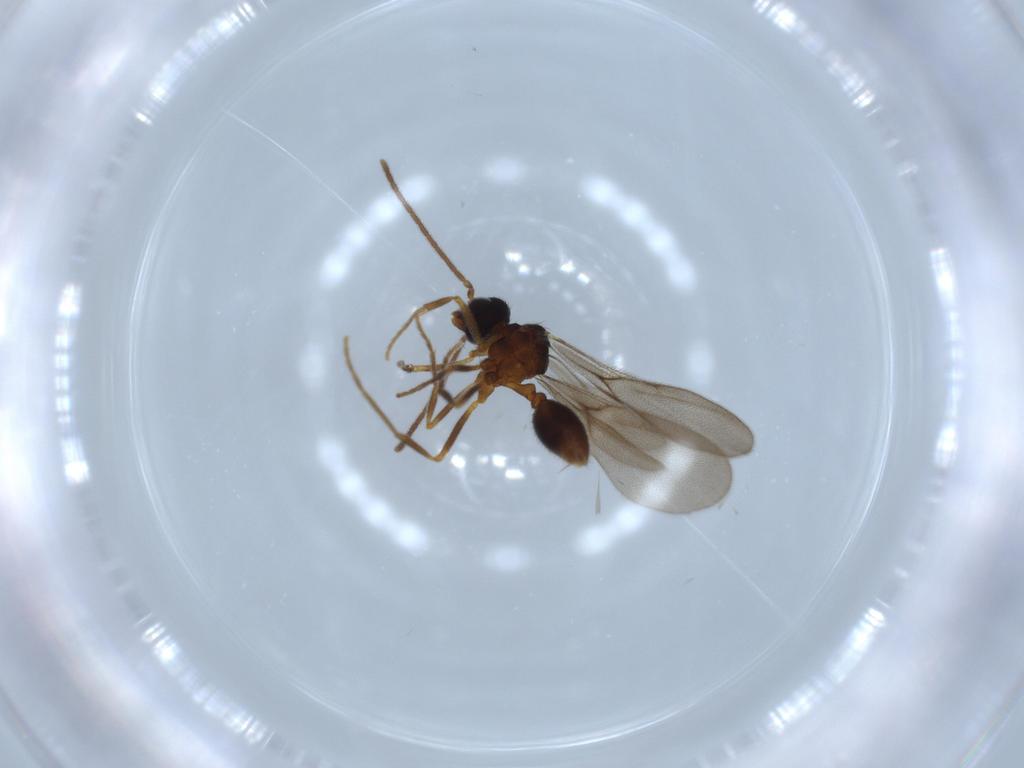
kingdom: Animalia
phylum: Arthropoda
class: Insecta
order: Hymenoptera
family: Formicidae
